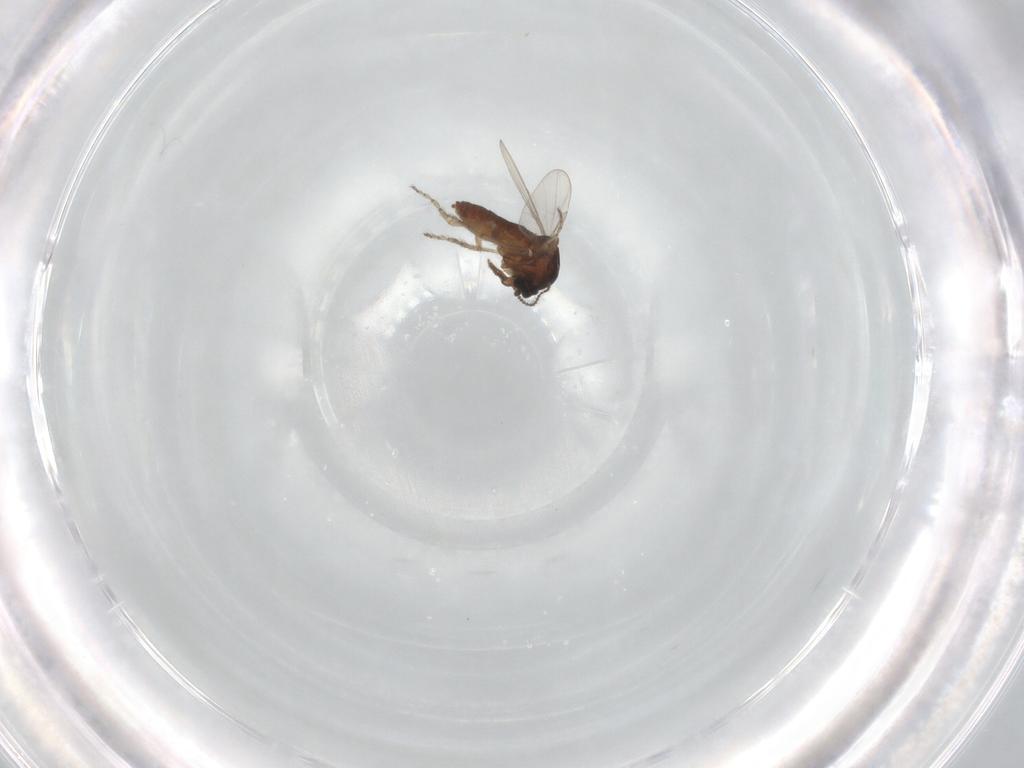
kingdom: Animalia
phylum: Arthropoda
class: Insecta
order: Diptera
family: Ceratopogonidae
